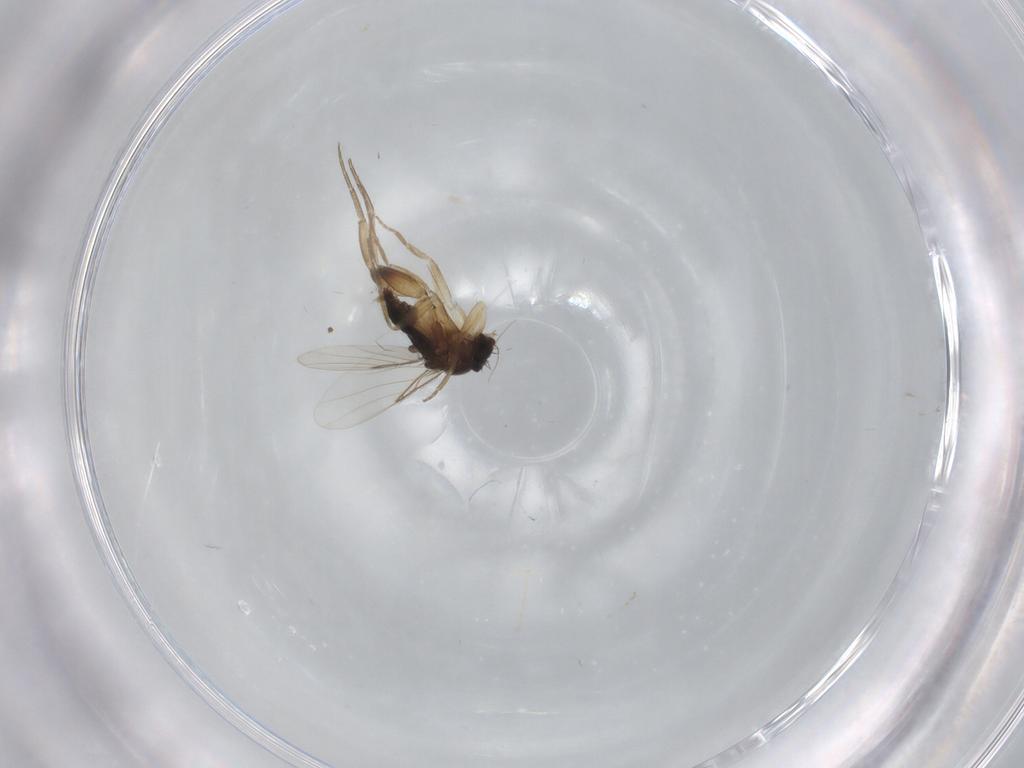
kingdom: Animalia
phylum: Arthropoda
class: Insecta
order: Diptera
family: Phoridae
